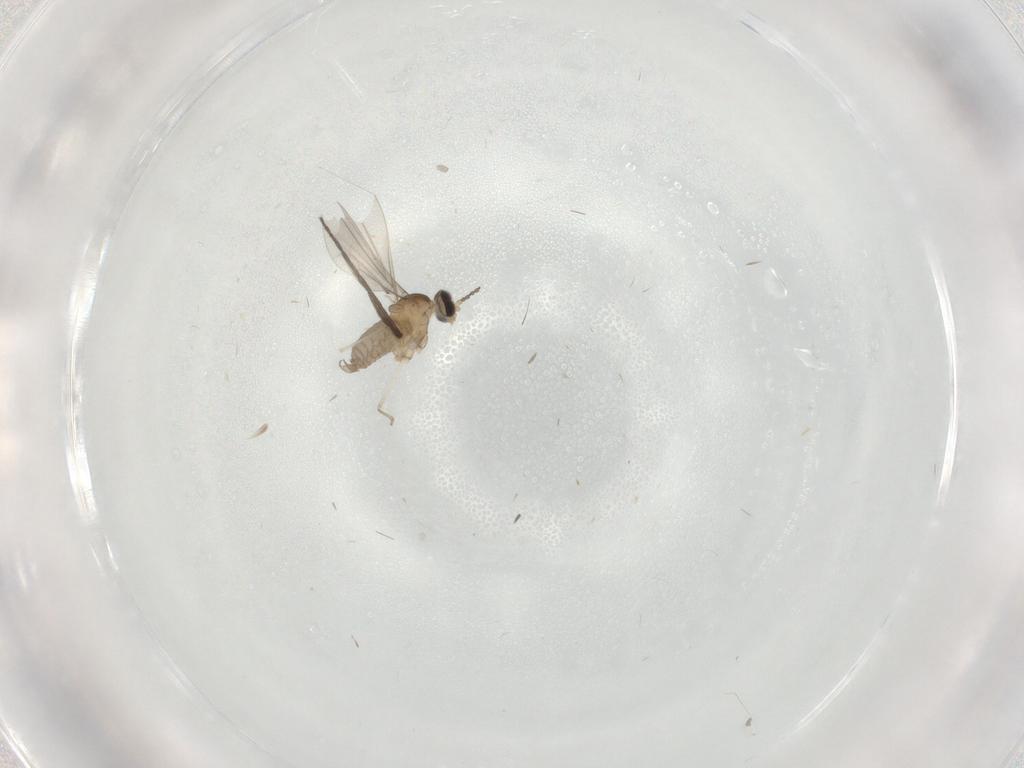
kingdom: Animalia
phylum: Arthropoda
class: Insecta
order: Diptera
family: Sciaridae
